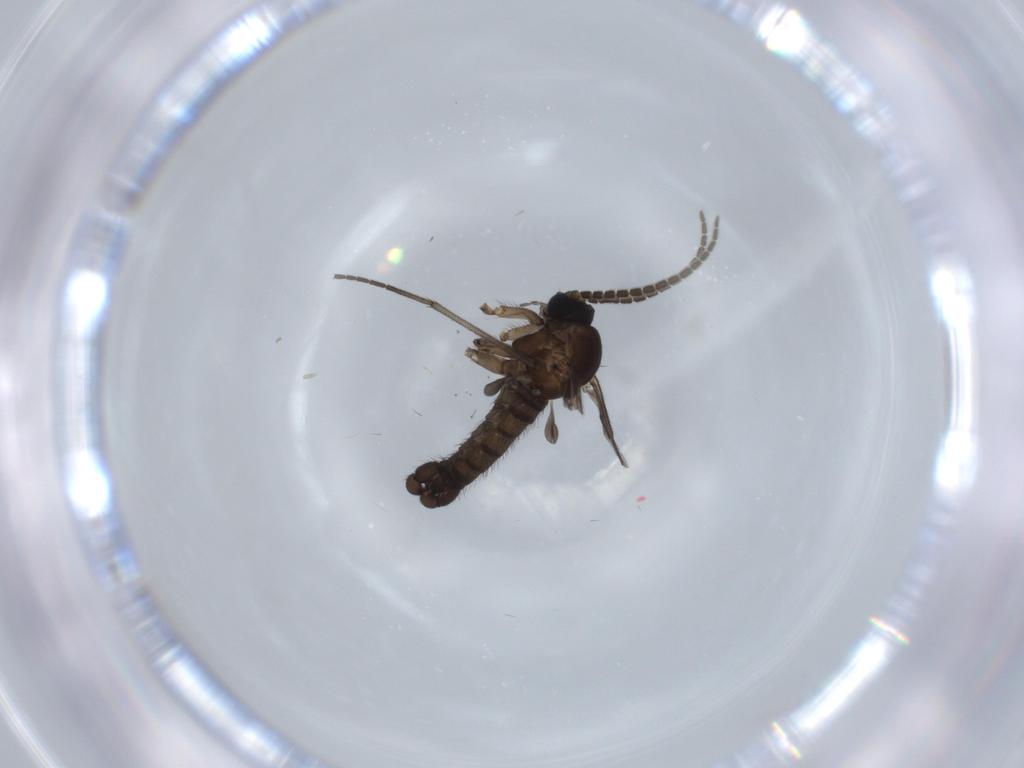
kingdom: Animalia
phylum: Arthropoda
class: Insecta
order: Diptera
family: Sciaridae
